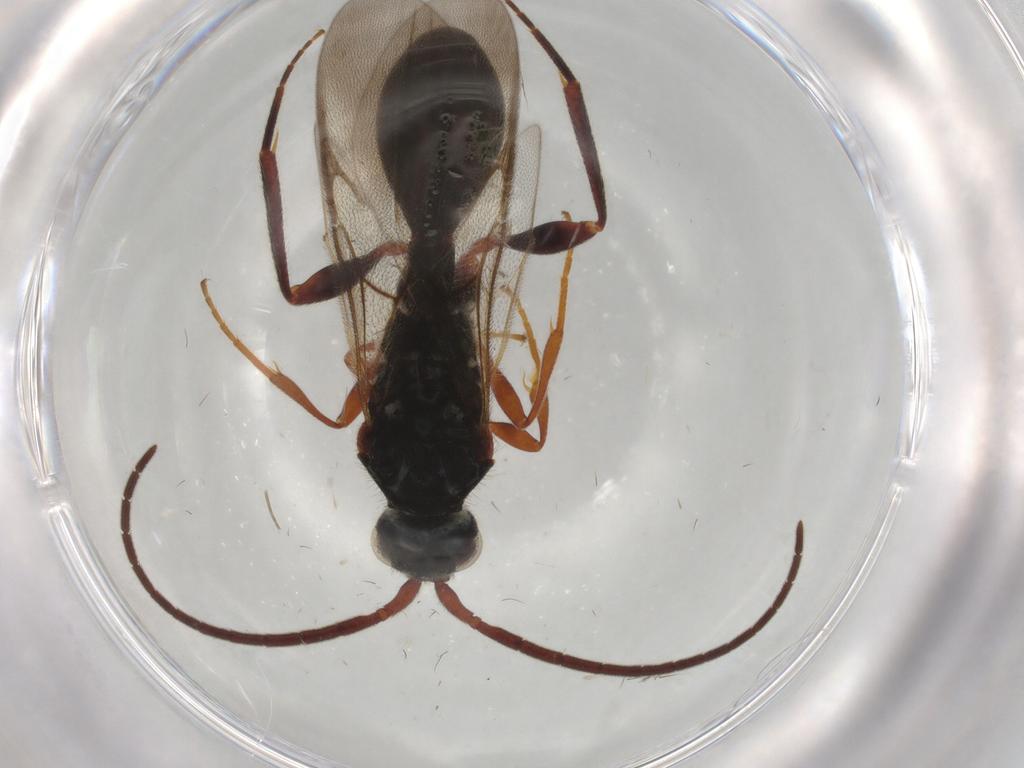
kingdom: Animalia
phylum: Arthropoda
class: Insecta
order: Hymenoptera
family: Diapriidae
